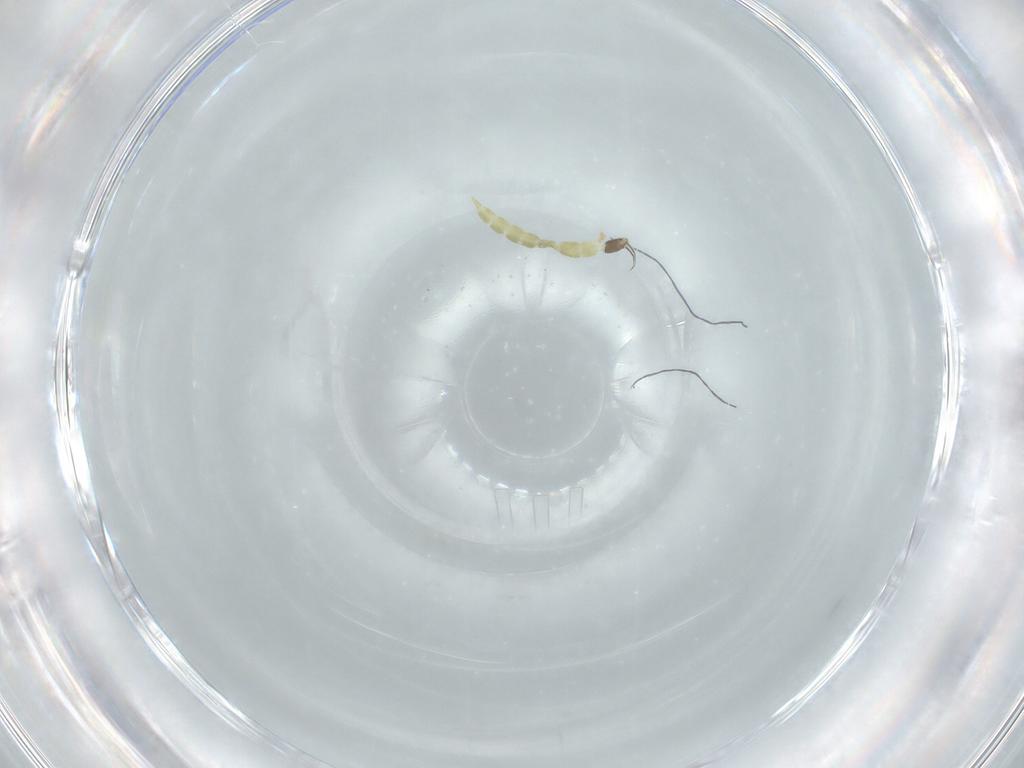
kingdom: Animalia
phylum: Arthropoda
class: Insecta
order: Diptera
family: Chironomidae
